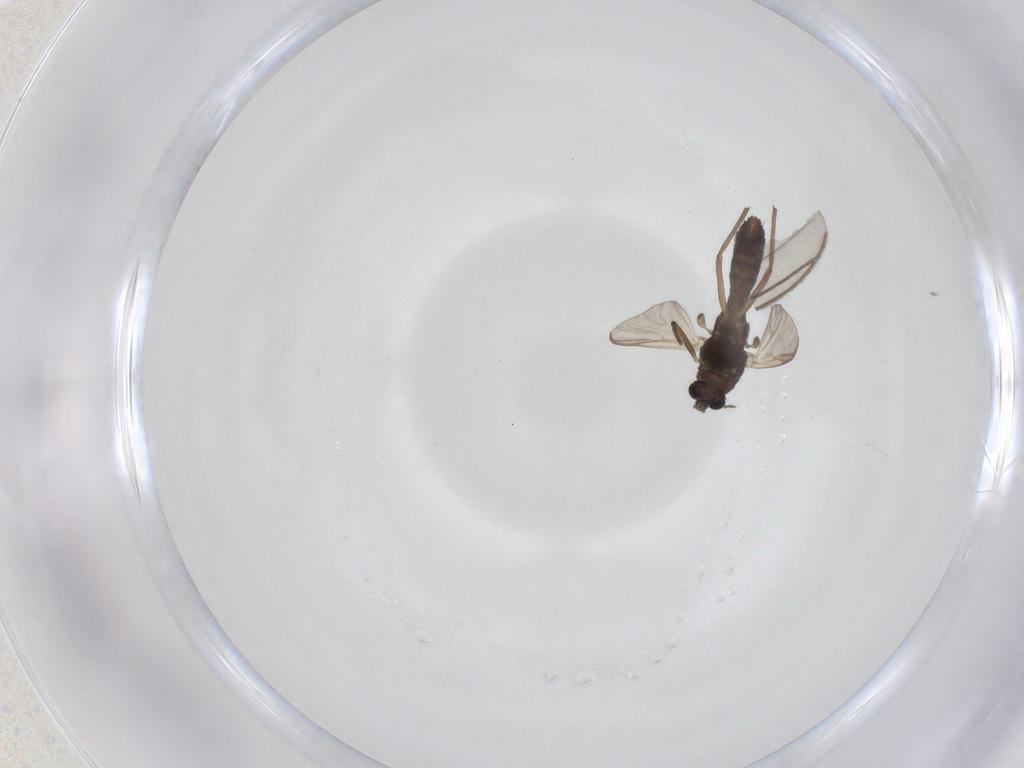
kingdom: Animalia
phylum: Arthropoda
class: Insecta
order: Diptera
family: Chironomidae
